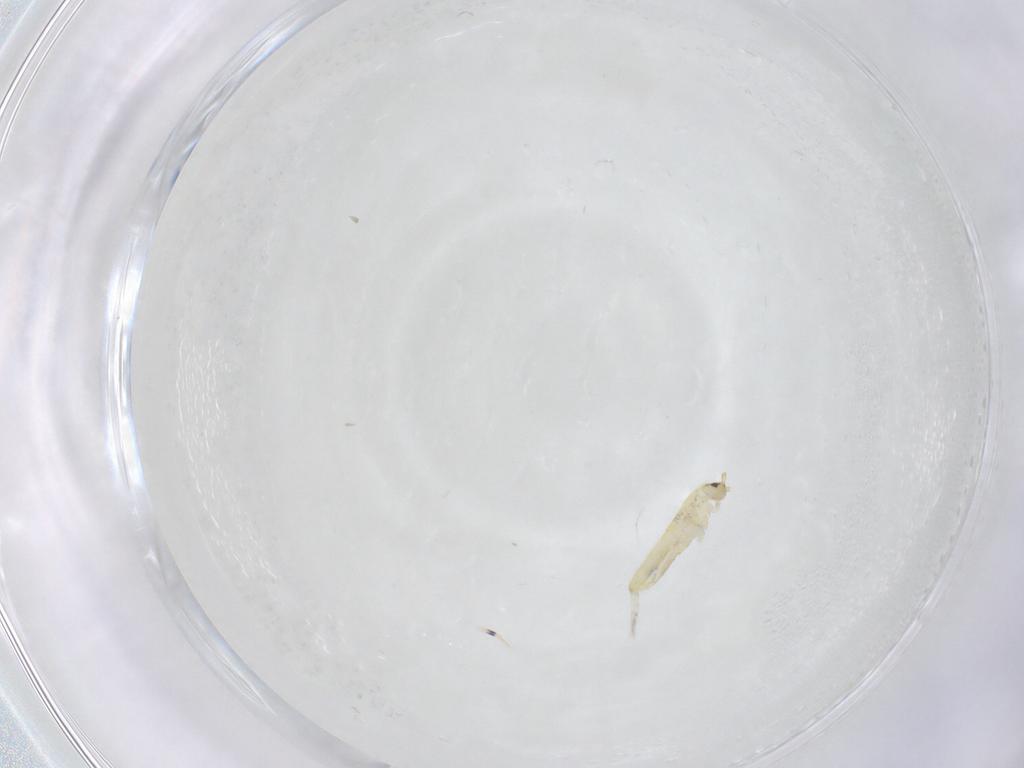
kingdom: Animalia
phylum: Arthropoda
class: Collembola
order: Entomobryomorpha
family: Entomobryidae
